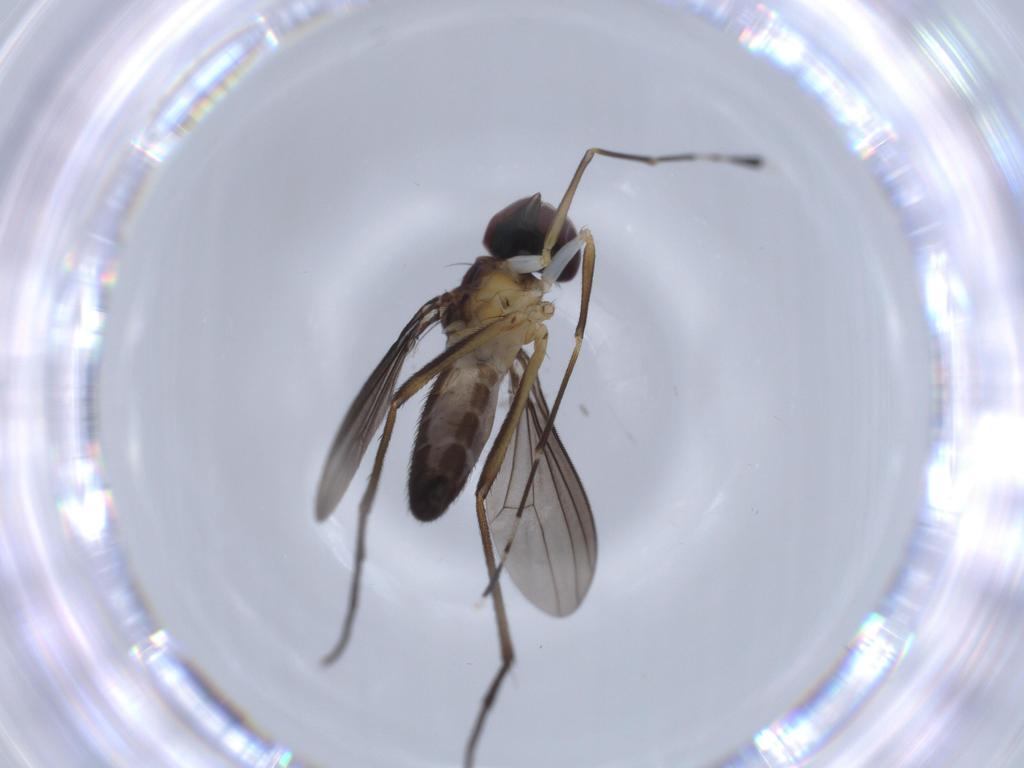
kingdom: Animalia
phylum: Arthropoda
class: Insecta
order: Diptera
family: Dolichopodidae
